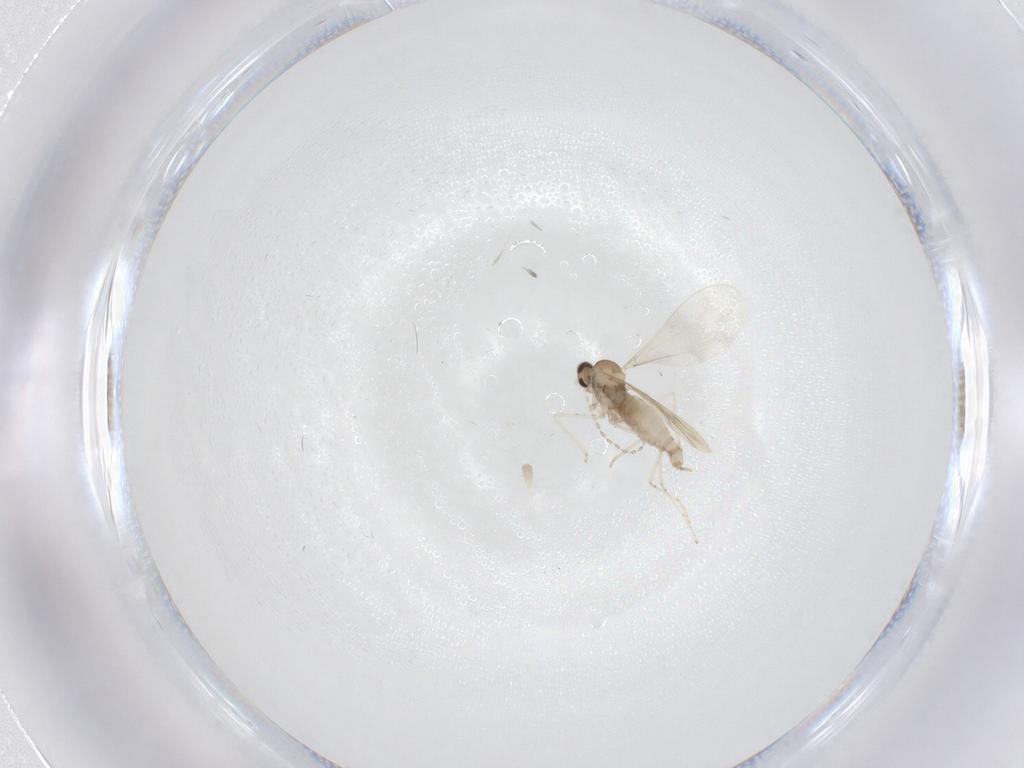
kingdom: Animalia
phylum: Arthropoda
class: Insecta
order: Diptera
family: Cecidomyiidae
